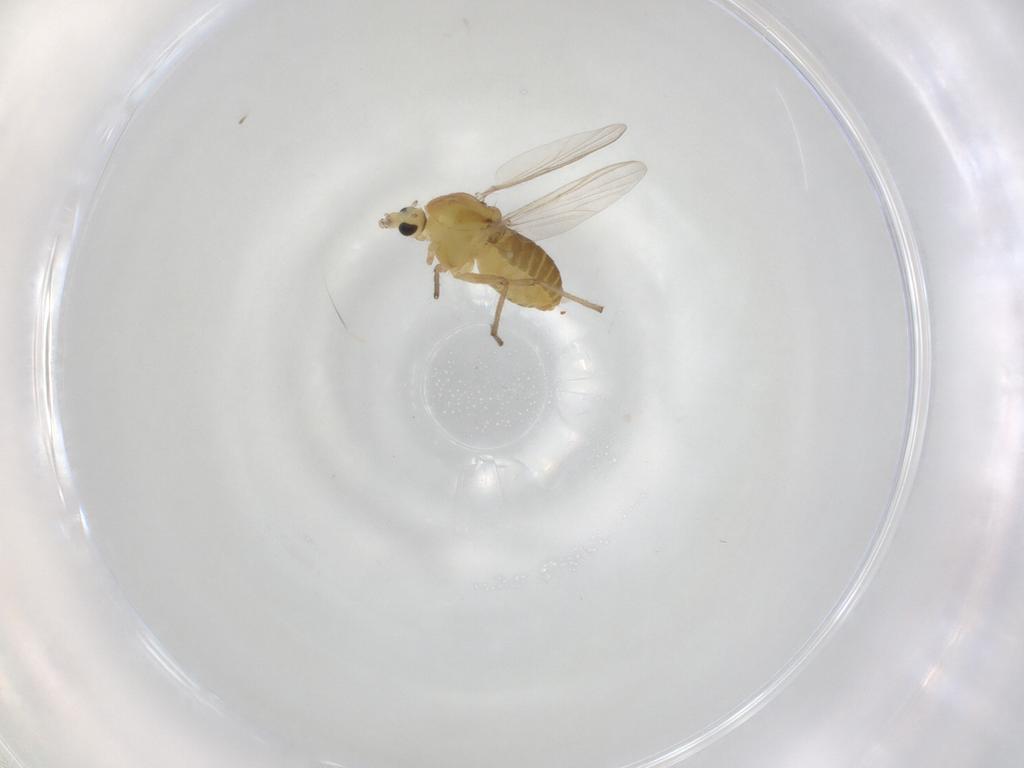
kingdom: Animalia
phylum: Arthropoda
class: Insecta
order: Diptera
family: Chironomidae
